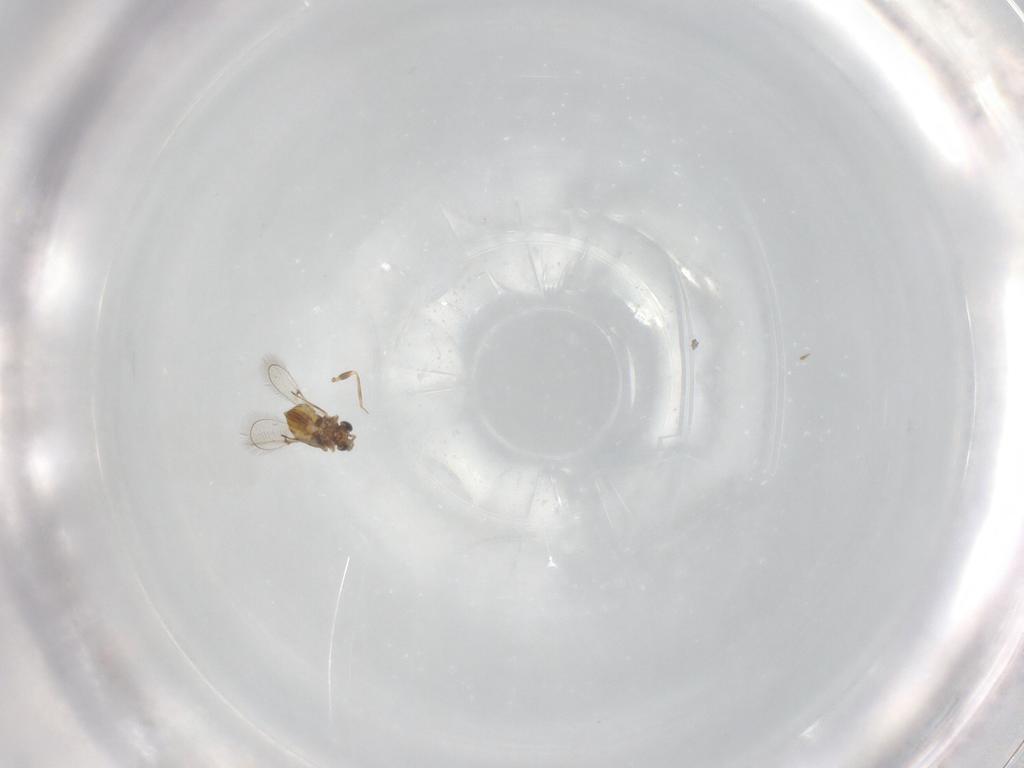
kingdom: Animalia
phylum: Arthropoda
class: Insecta
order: Hymenoptera
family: Trichogrammatidae
